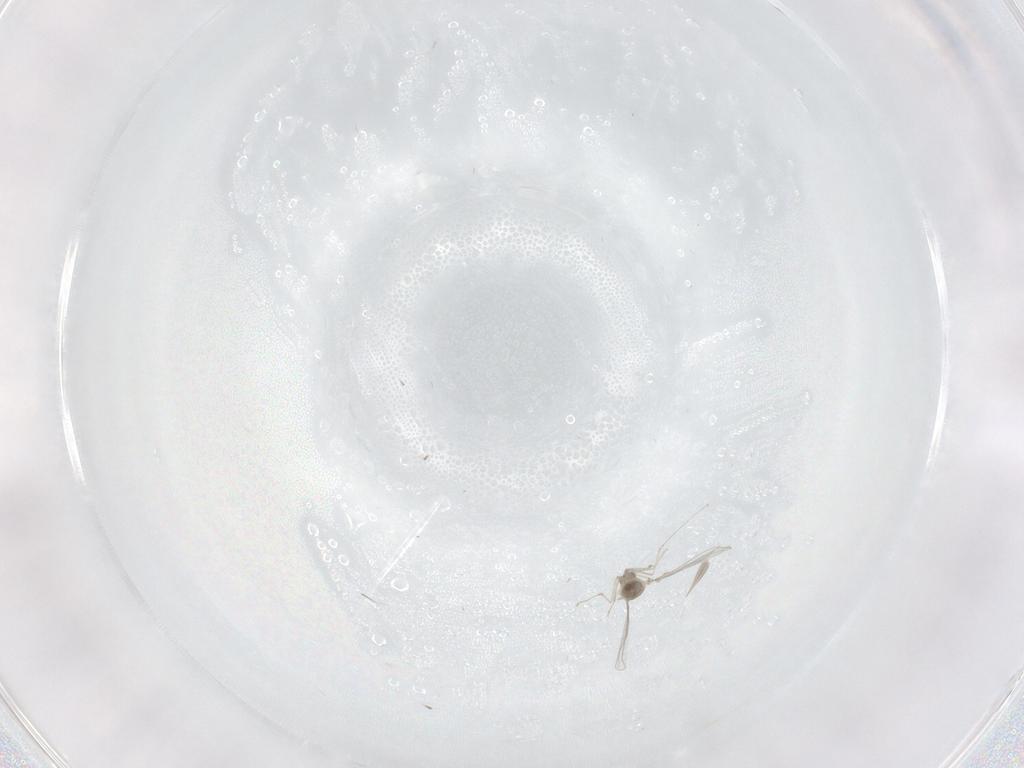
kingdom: Animalia
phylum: Arthropoda
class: Insecta
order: Diptera
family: Cecidomyiidae
